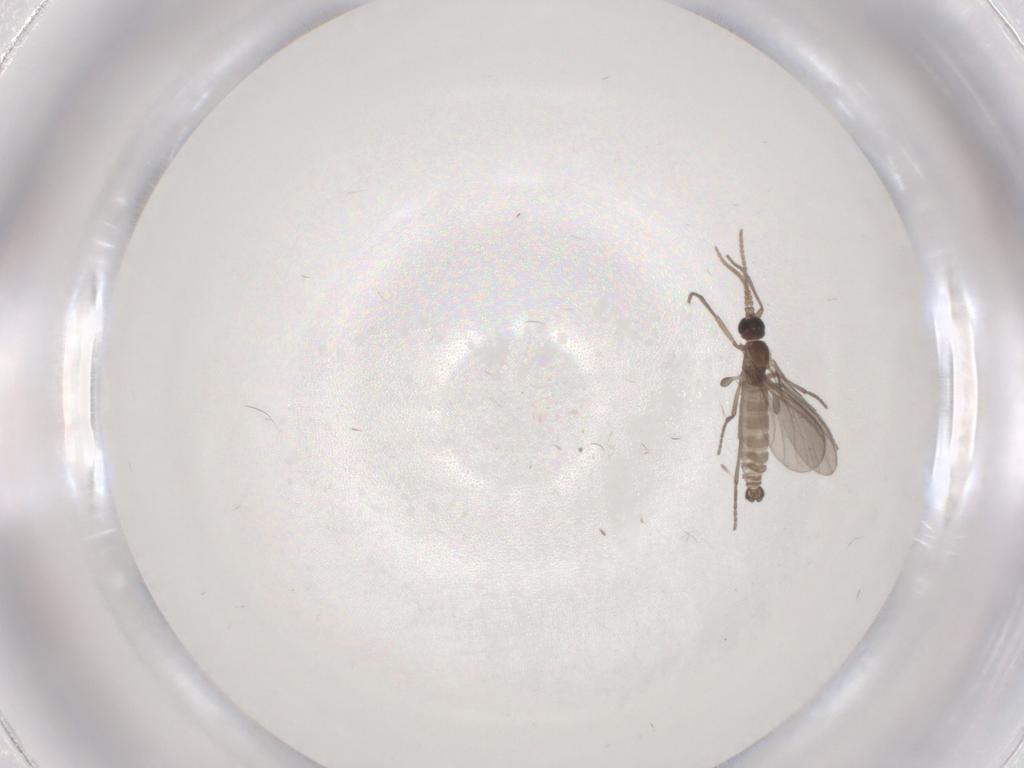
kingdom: Animalia
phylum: Arthropoda
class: Insecta
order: Diptera
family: Sciaridae
